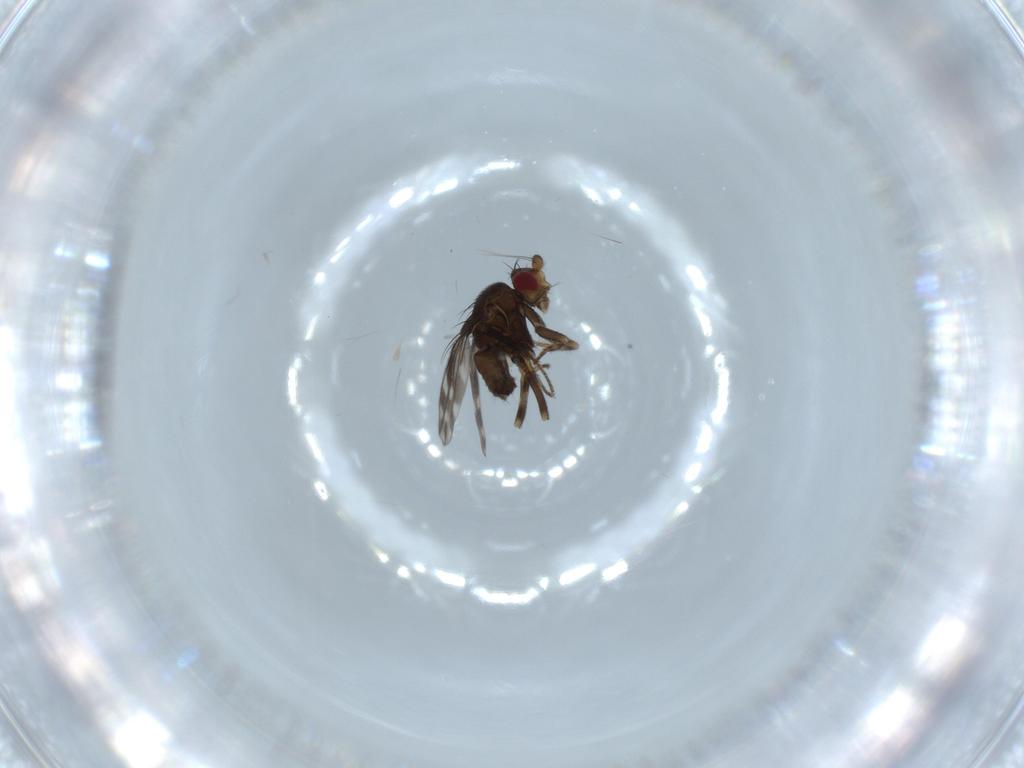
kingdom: Animalia
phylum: Arthropoda
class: Insecta
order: Diptera
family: Sphaeroceridae
